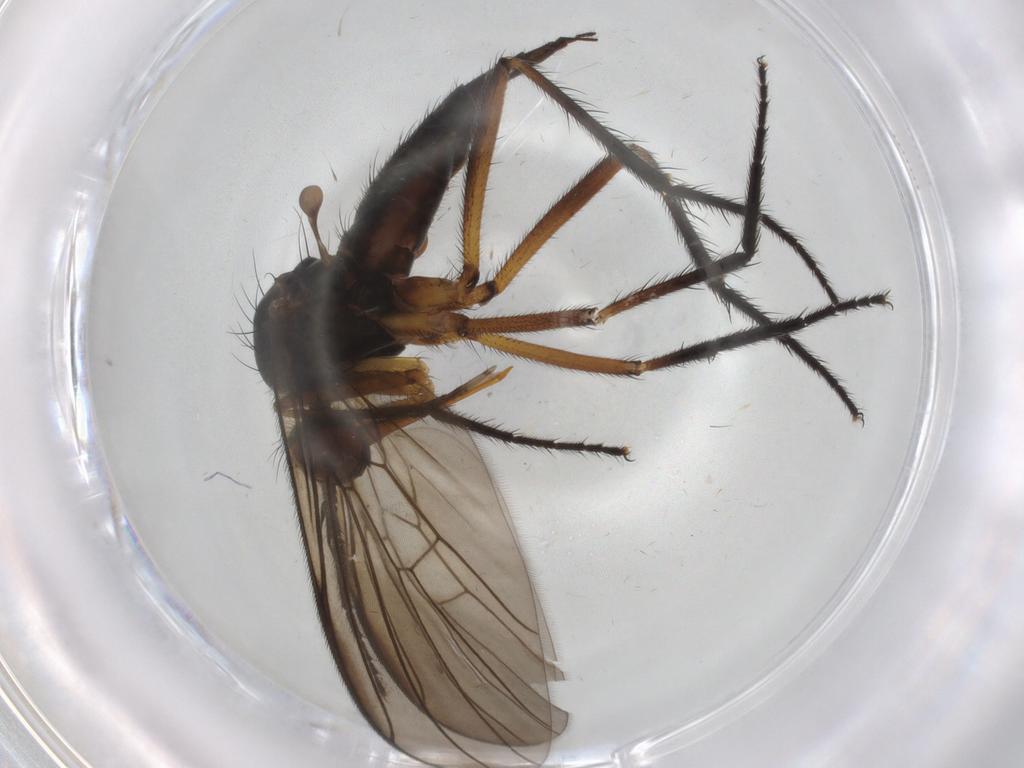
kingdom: Animalia
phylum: Arthropoda
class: Insecta
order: Diptera
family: Empididae
